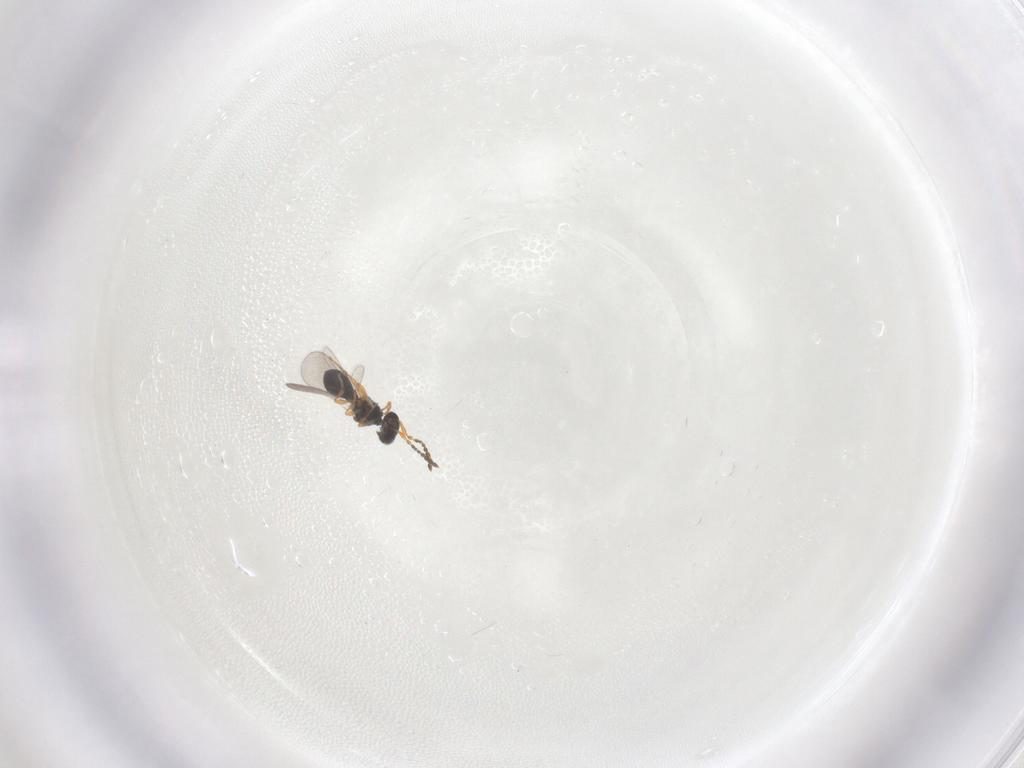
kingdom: Animalia
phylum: Arthropoda
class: Insecta
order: Hymenoptera
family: Platygastridae
